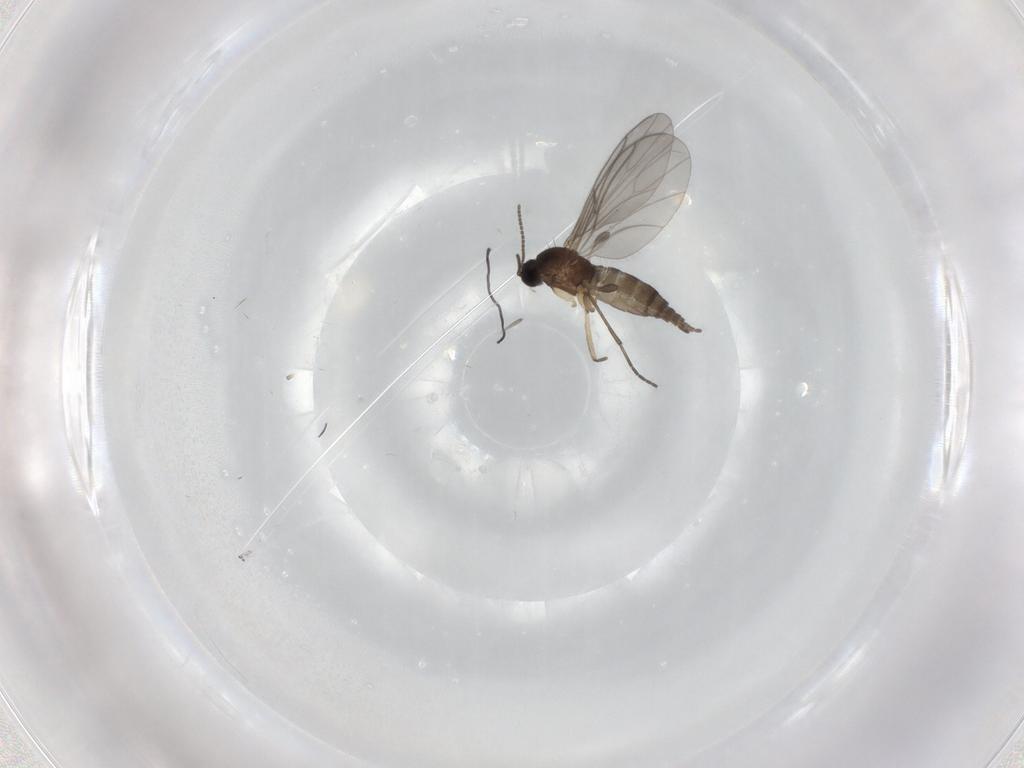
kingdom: Animalia
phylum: Arthropoda
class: Insecta
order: Diptera
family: Sciaridae
